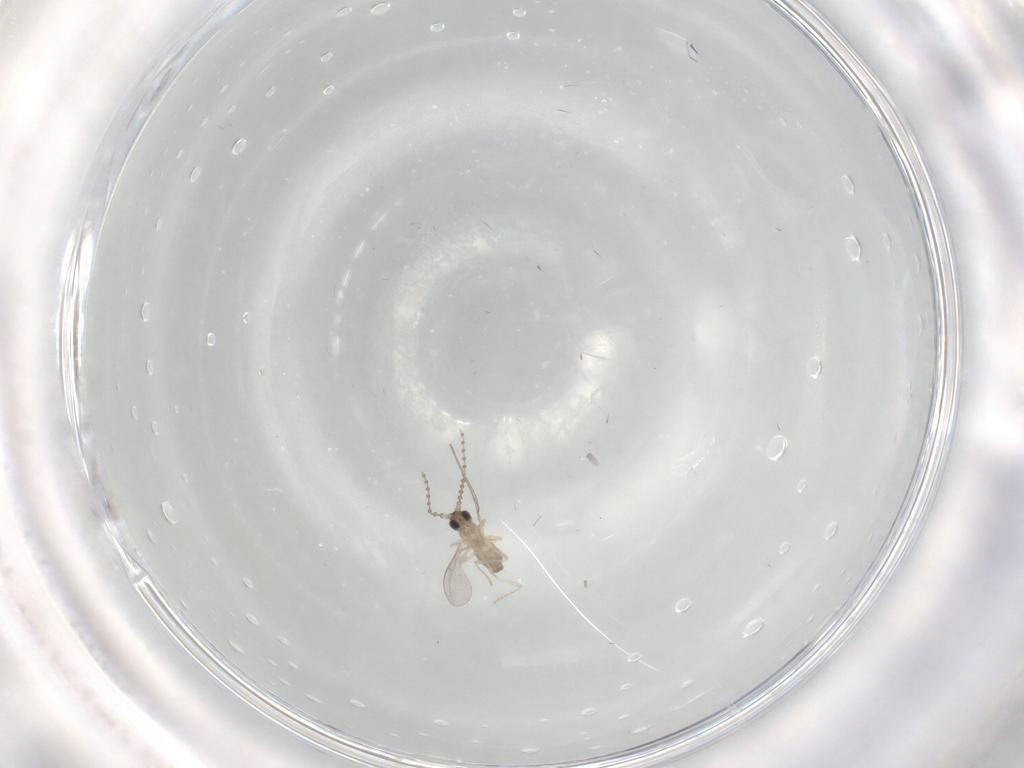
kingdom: Animalia
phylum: Arthropoda
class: Insecta
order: Diptera
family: Cecidomyiidae
